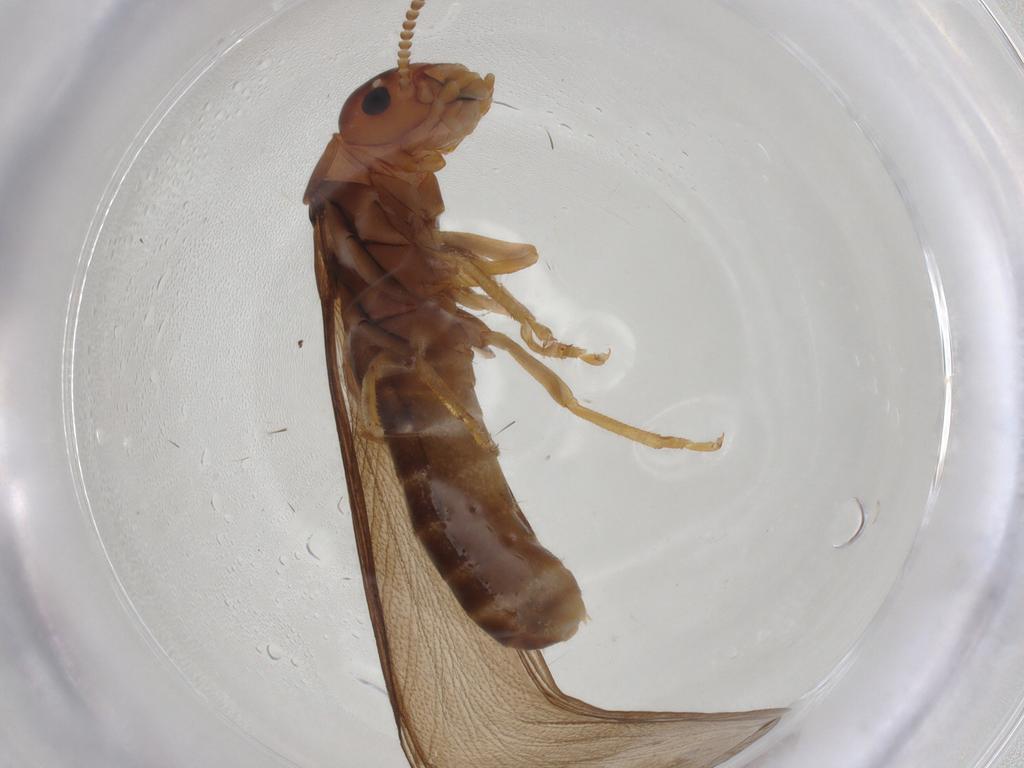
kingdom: Animalia
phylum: Arthropoda
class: Insecta
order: Blattodea
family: Kalotermitidae
